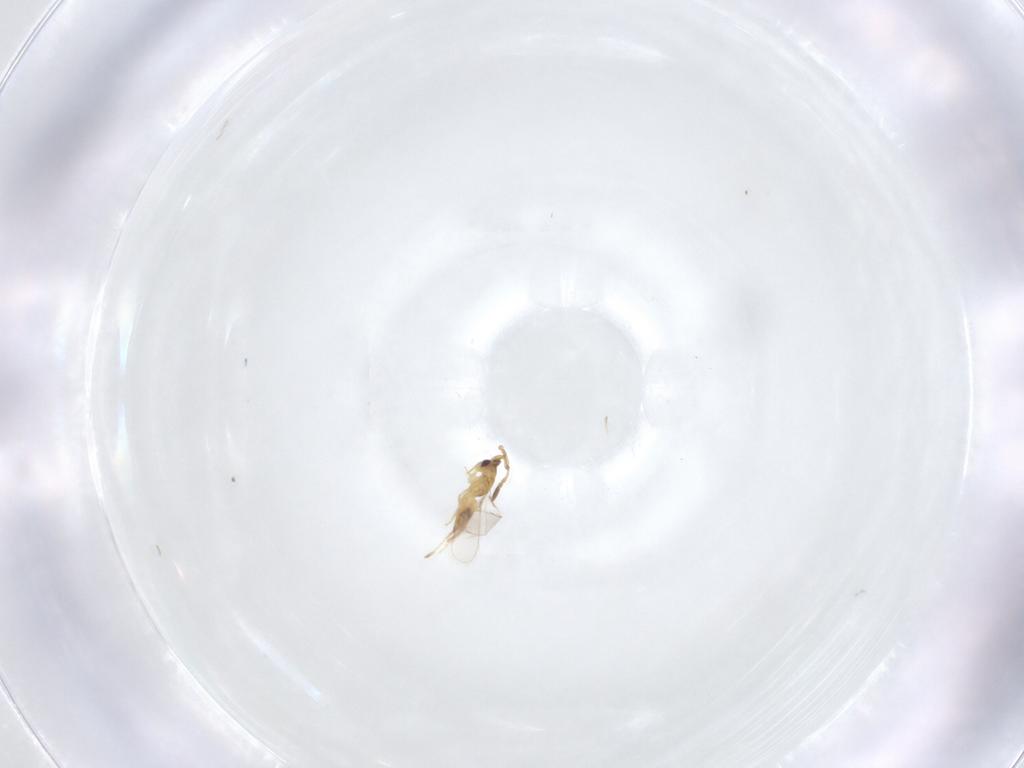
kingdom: Animalia
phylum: Arthropoda
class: Insecta
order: Hymenoptera
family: Mymaridae
